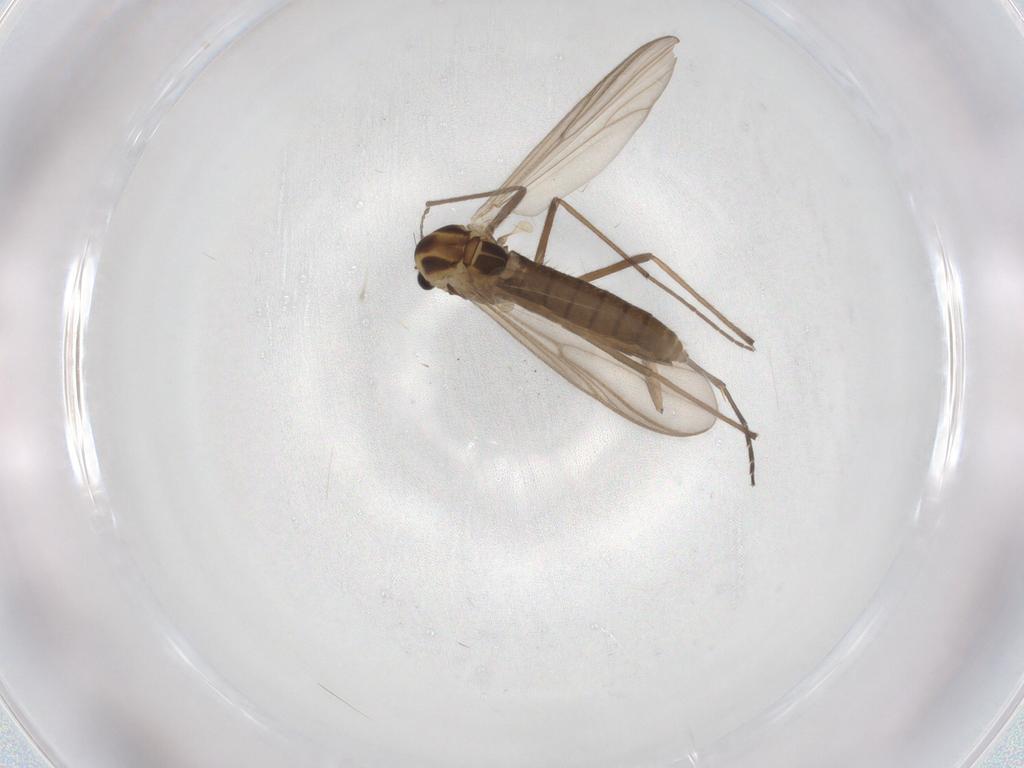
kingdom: Animalia
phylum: Arthropoda
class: Insecta
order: Diptera
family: Chironomidae
